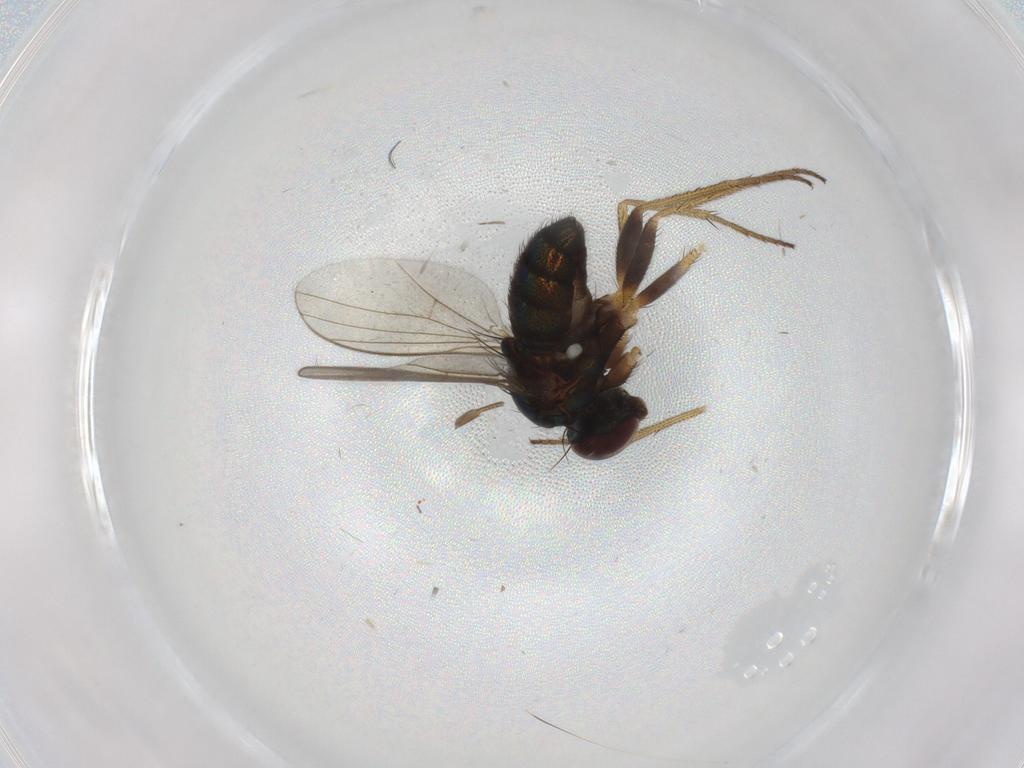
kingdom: Animalia
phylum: Arthropoda
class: Insecta
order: Diptera
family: Dolichopodidae
